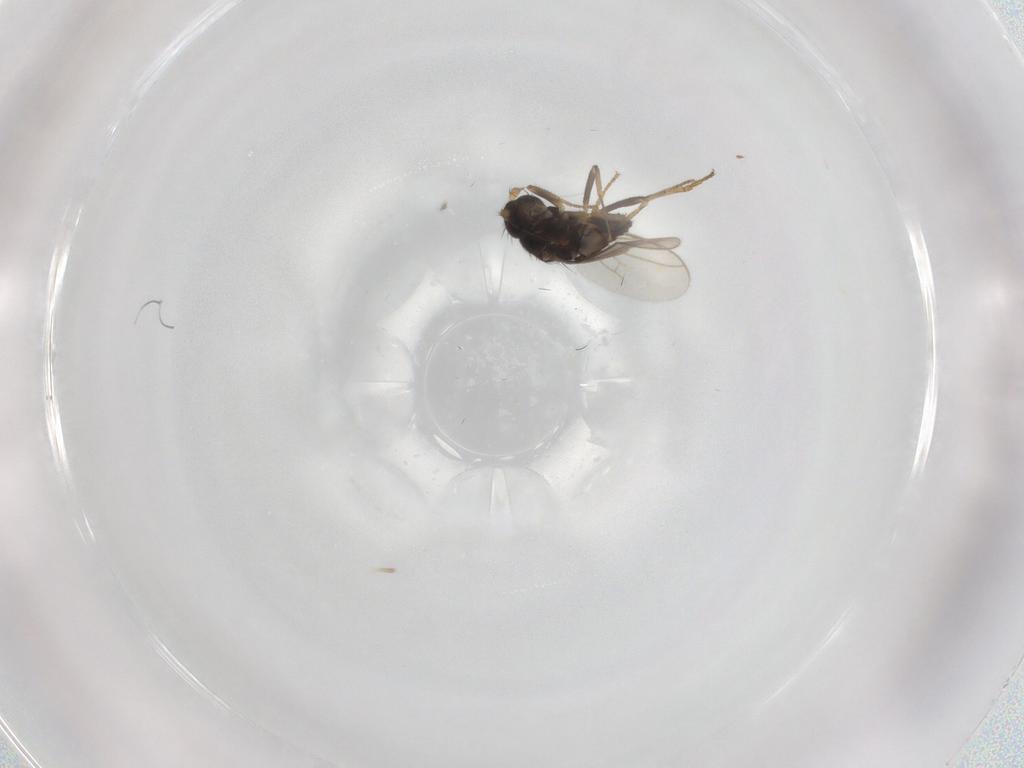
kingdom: Animalia
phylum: Arthropoda
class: Insecta
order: Diptera
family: Sphaeroceridae
